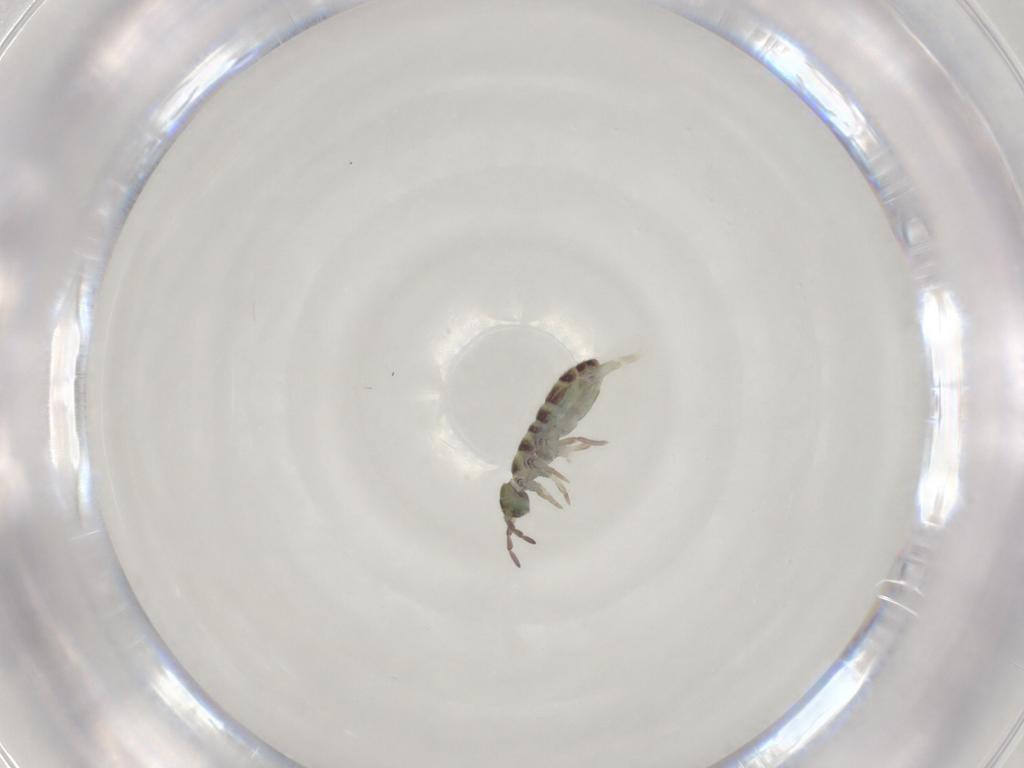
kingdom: Animalia
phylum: Arthropoda
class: Collembola
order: Entomobryomorpha
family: Isotomidae
